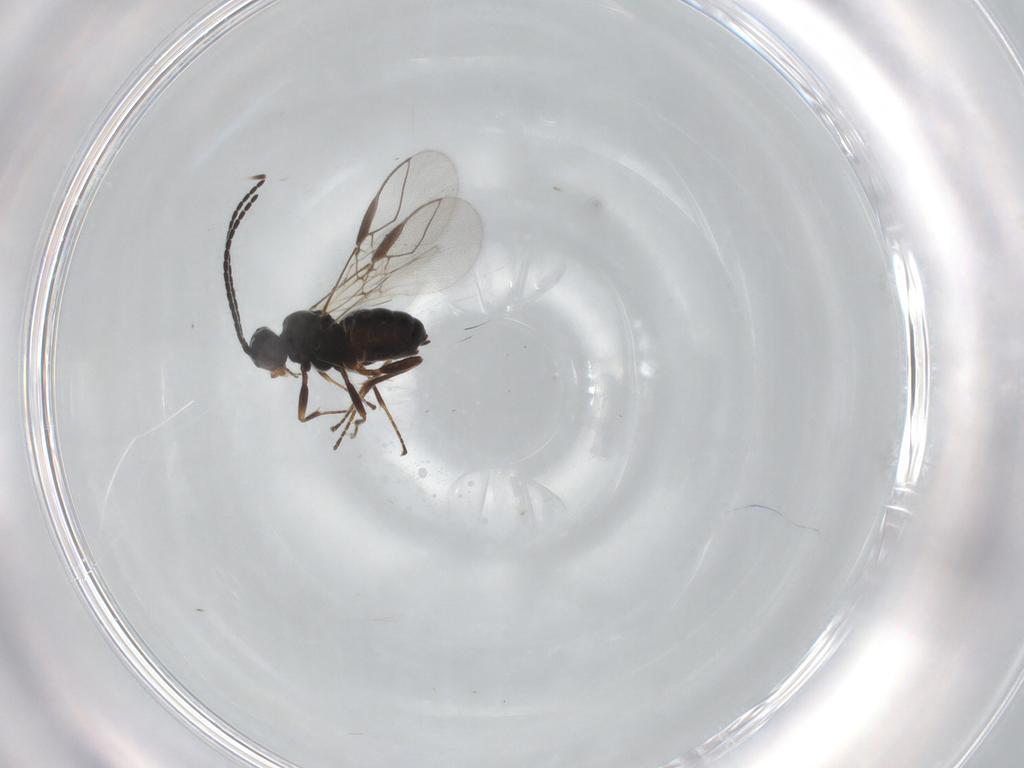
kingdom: Animalia
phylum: Arthropoda
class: Insecta
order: Hymenoptera
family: Braconidae
